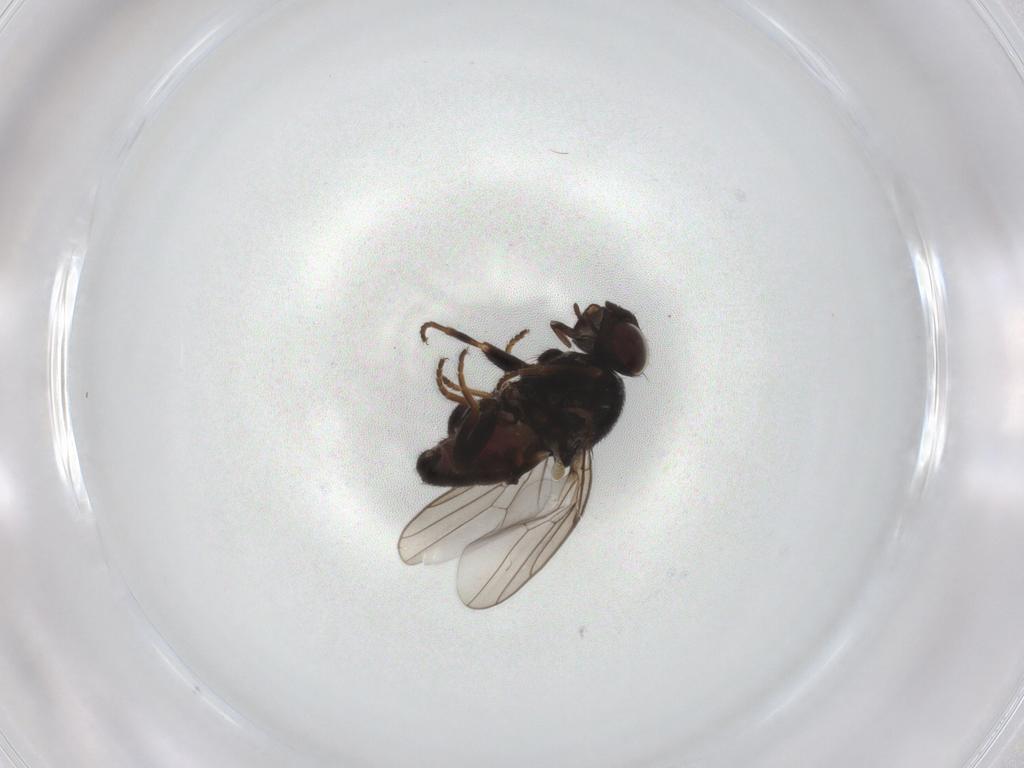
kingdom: Animalia
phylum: Arthropoda
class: Insecta
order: Diptera
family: Chloropidae
